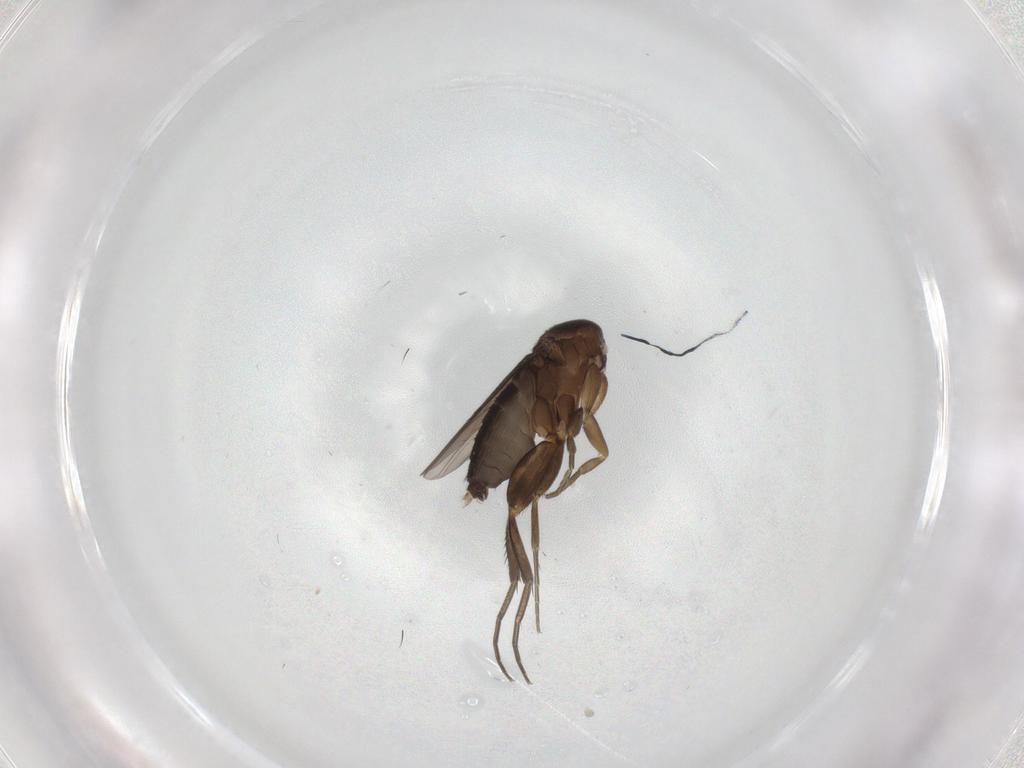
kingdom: Animalia
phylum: Arthropoda
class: Insecta
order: Diptera
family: Phoridae
